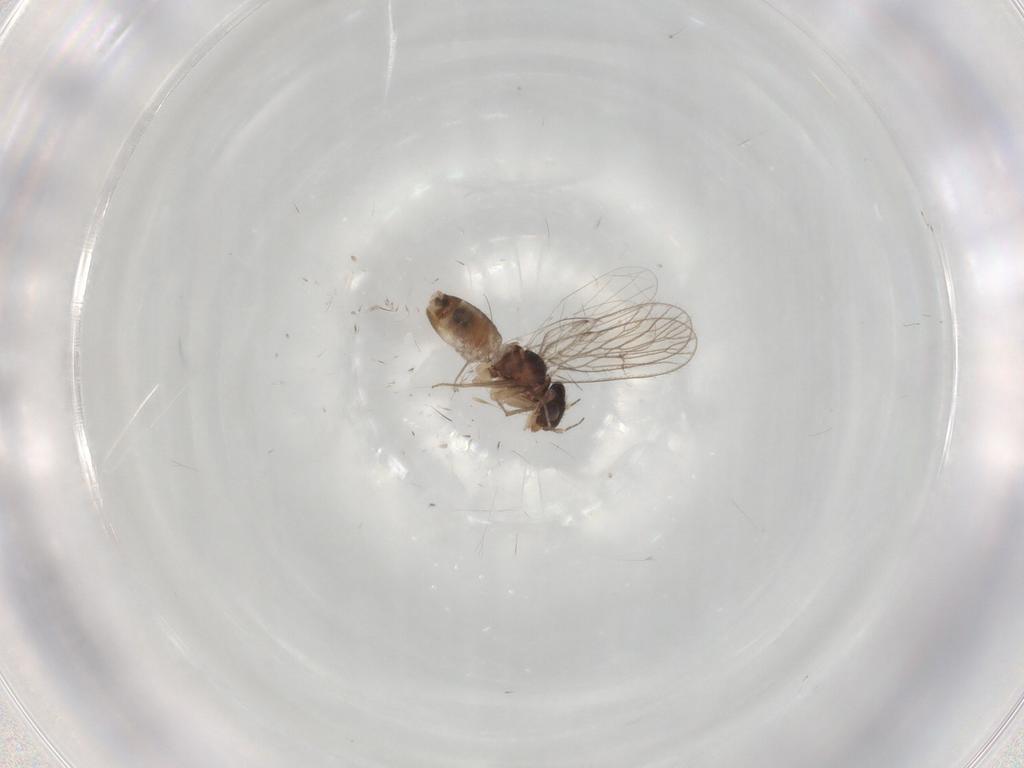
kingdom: Animalia
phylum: Arthropoda
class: Insecta
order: Psocodea
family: Psoquillidae
